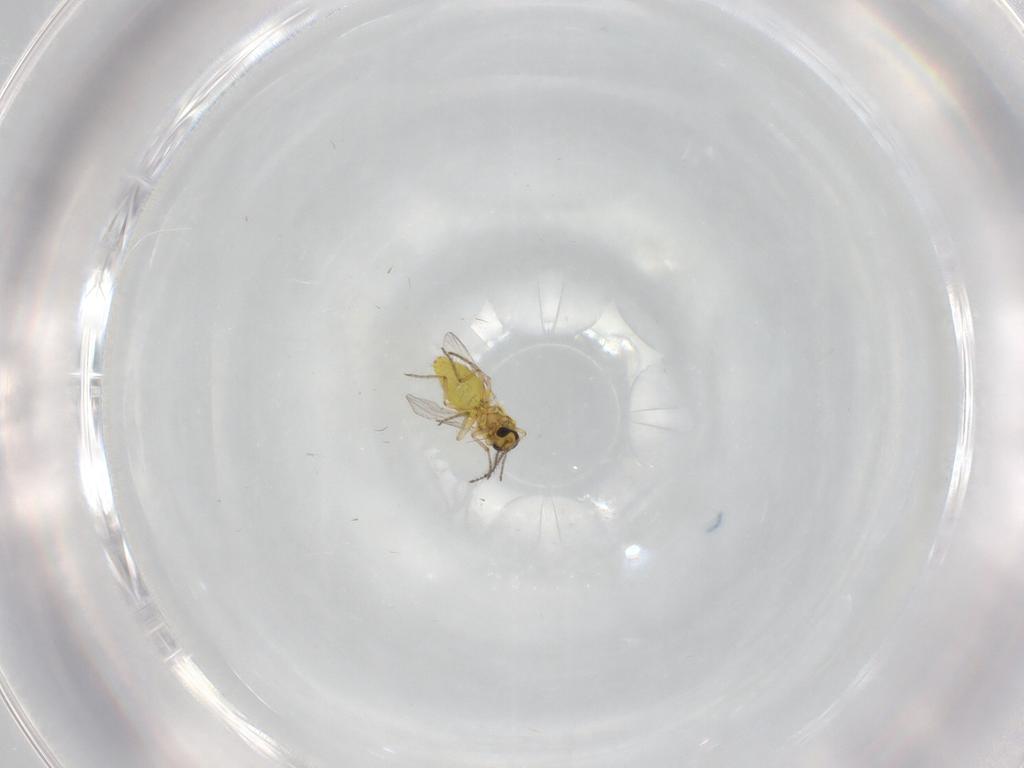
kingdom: Animalia
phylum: Arthropoda
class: Insecta
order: Diptera
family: Ceratopogonidae
